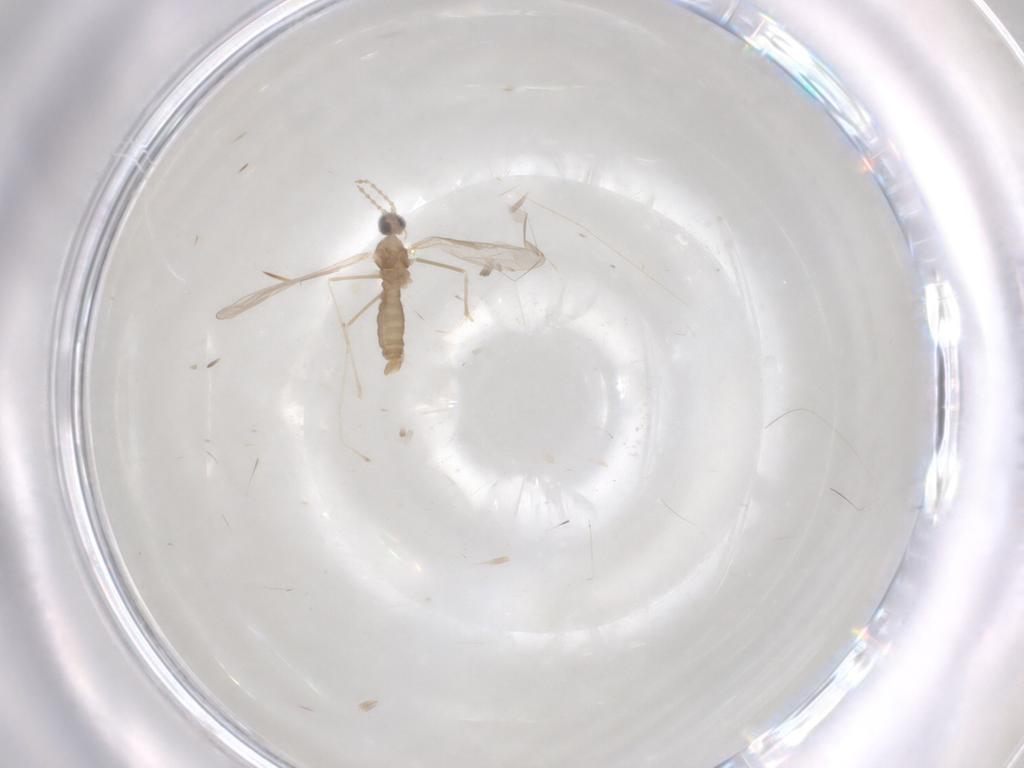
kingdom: Animalia
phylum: Arthropoda
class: Insecta
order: Diptera
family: Cecidomyiidae
